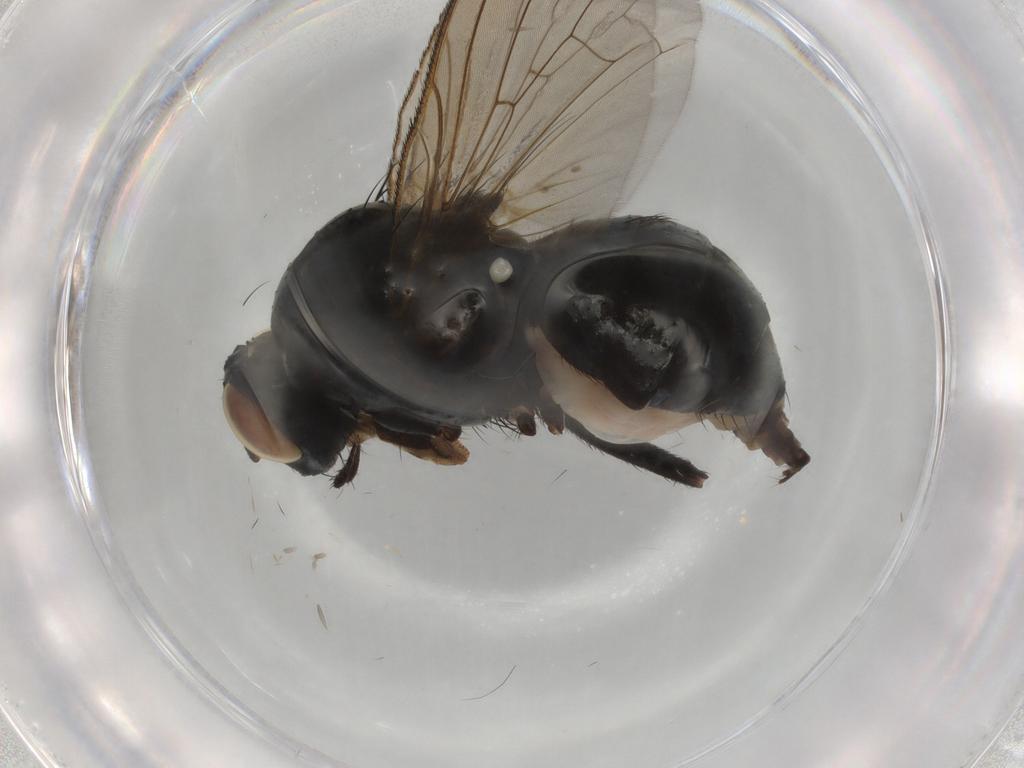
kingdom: Animalia
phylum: Arthropoda
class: Insecta
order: Diptera
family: Anthomyiidae
